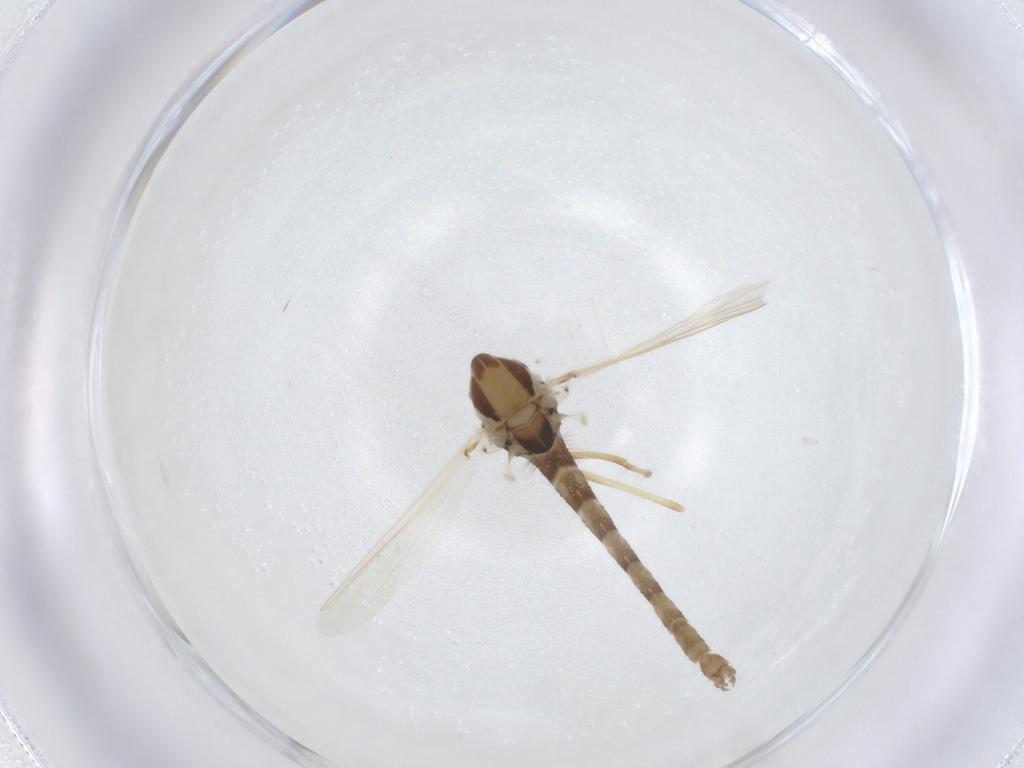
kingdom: Animalia
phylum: Arthropoda
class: Insecta
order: Diptera
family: Chironomidae
